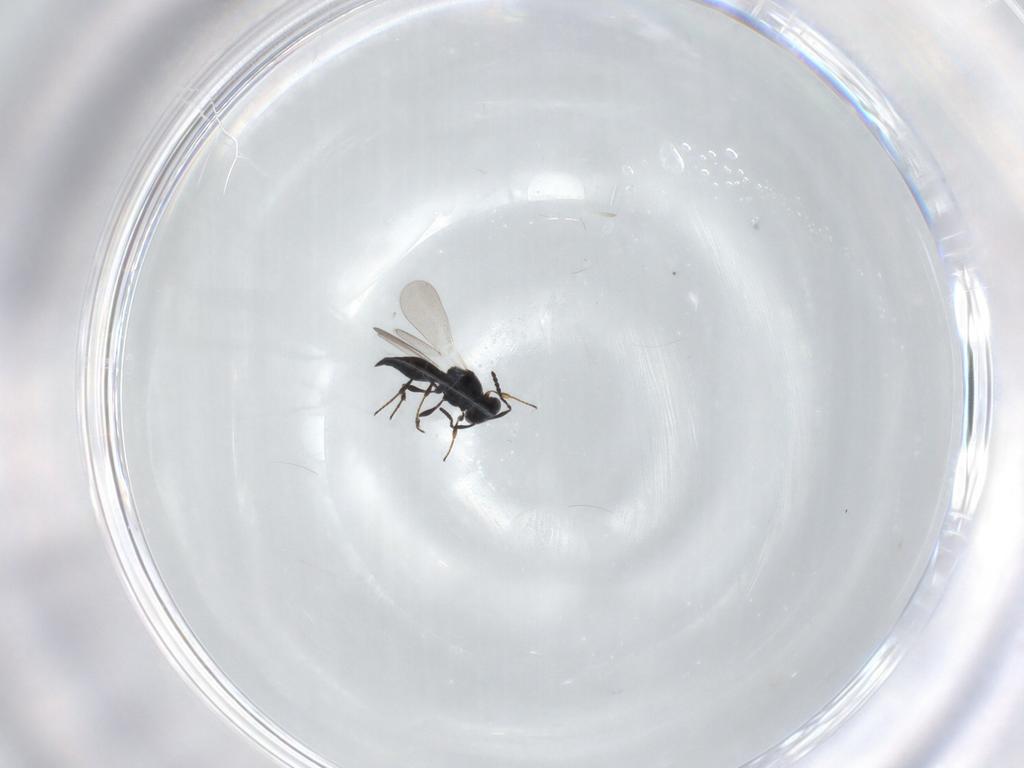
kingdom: Animalia
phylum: Arthropoda
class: Insecta
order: Hymenoptera
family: Platygastridae
